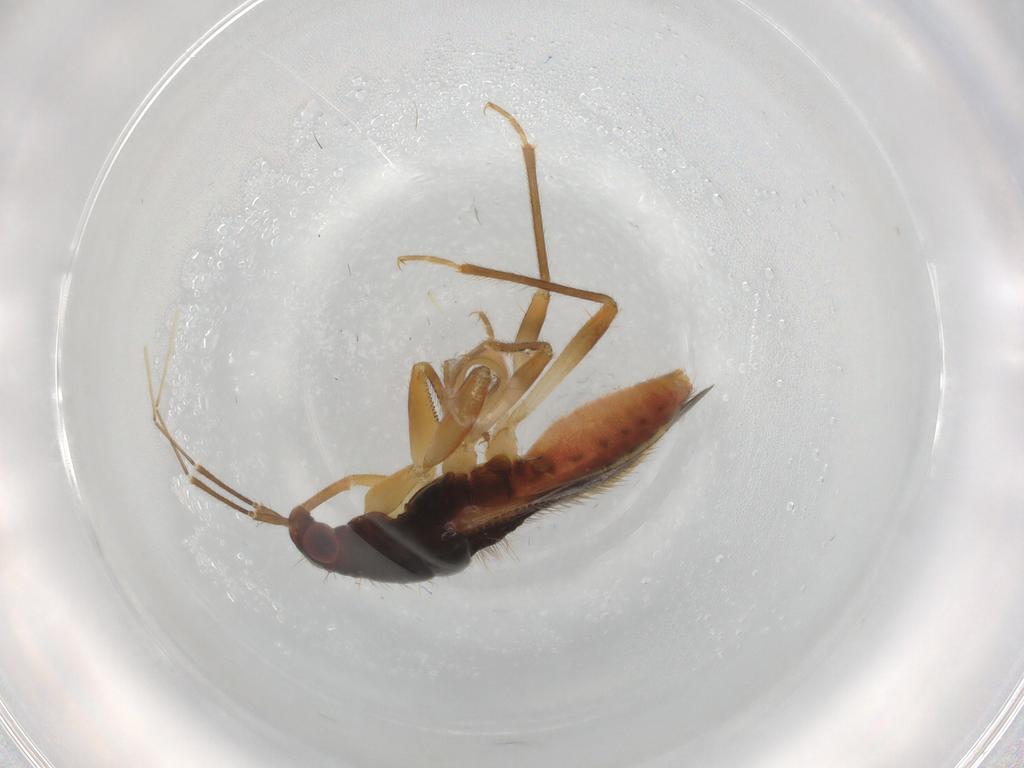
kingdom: Animalia
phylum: Arthropoda
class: Insecta
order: Hemiptera
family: Nabidae
